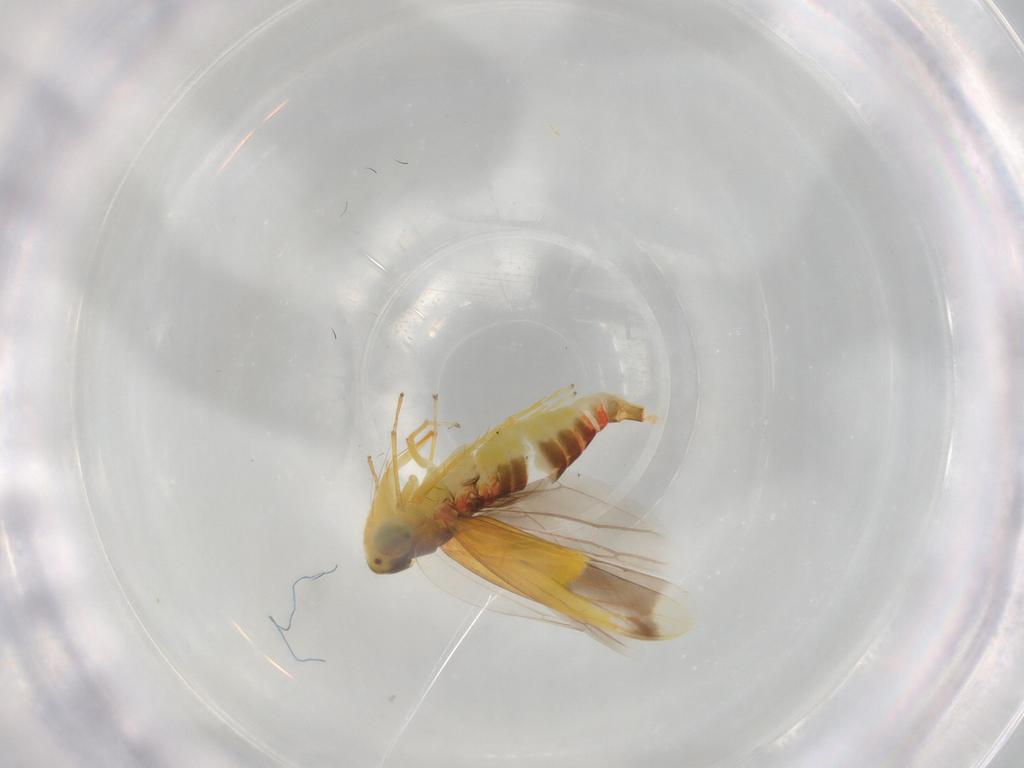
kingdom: Animalia
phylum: Arthropoda
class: Insecta
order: Hemiptera
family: Cicadellidae
